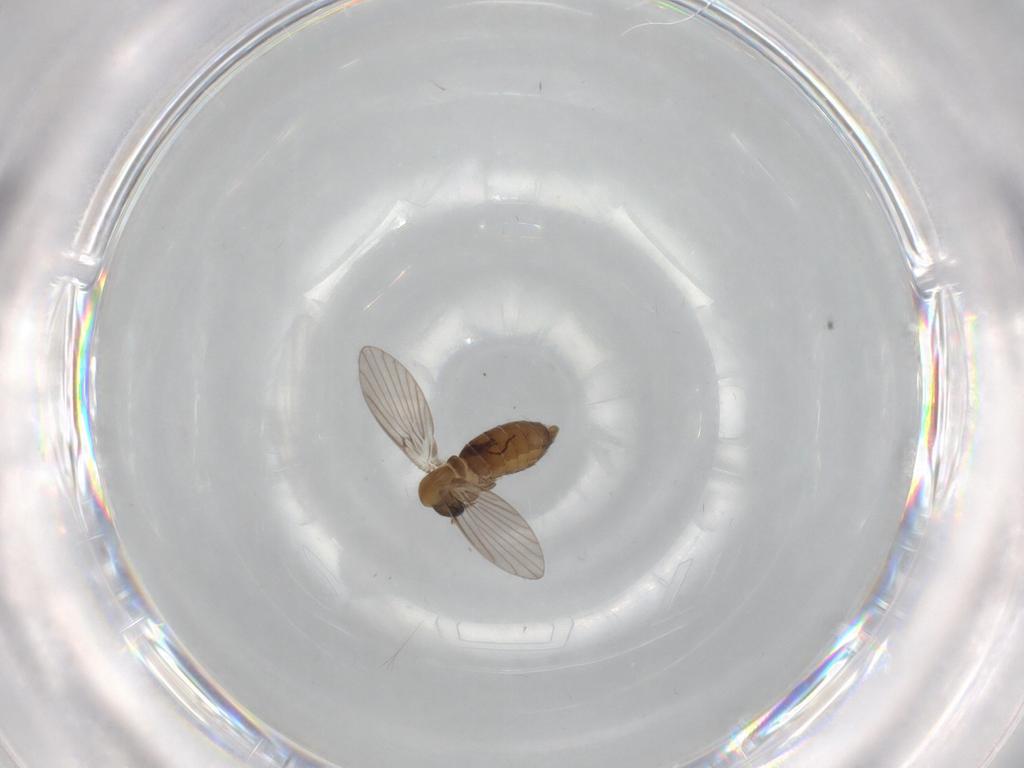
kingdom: Animalia
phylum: Arthropoda
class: Insecta
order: Diptera
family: Psychodidae
